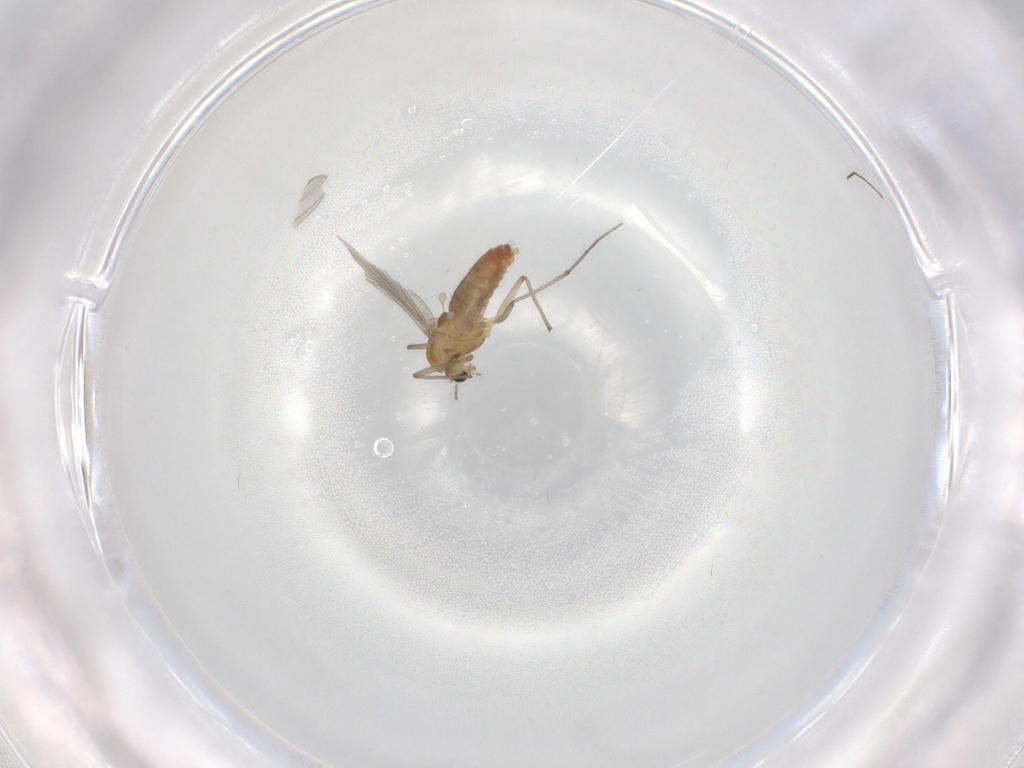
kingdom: Animalia
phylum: Arthropoda
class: Insecta
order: Diptera
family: Chironomidae
